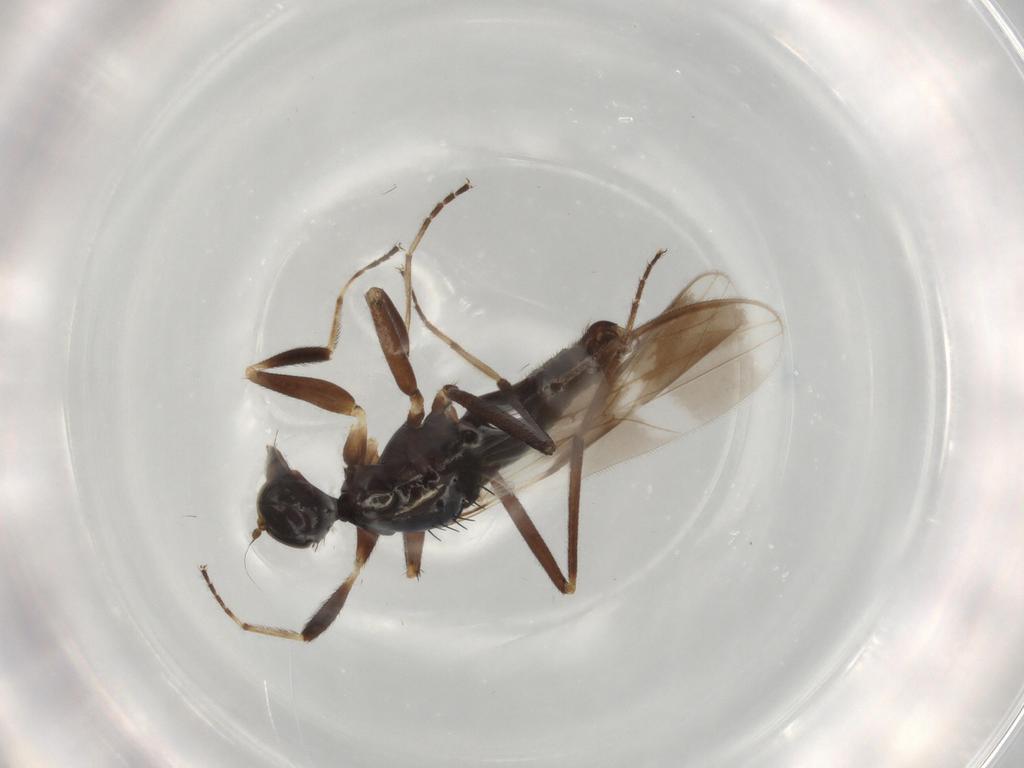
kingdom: Animalia
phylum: Arthropoda
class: Insecta
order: Diptera
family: Hybotidae
